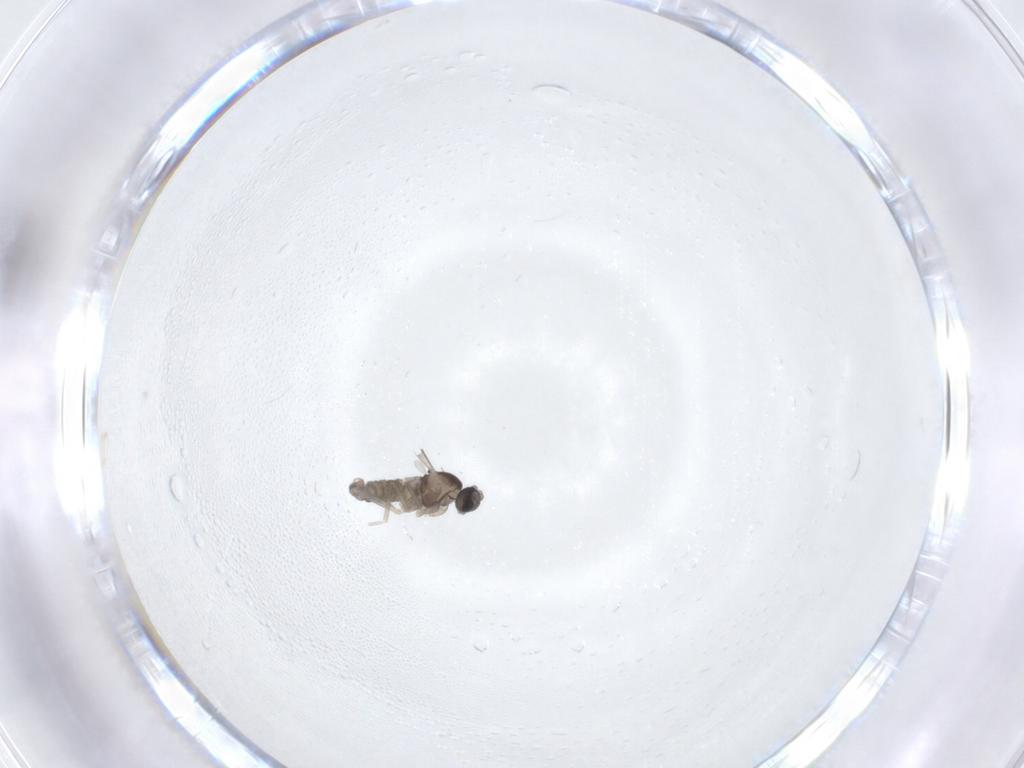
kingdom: Animalia
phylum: Arthropoda
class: Insecta
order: Diptera
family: Cecidomyiidae
